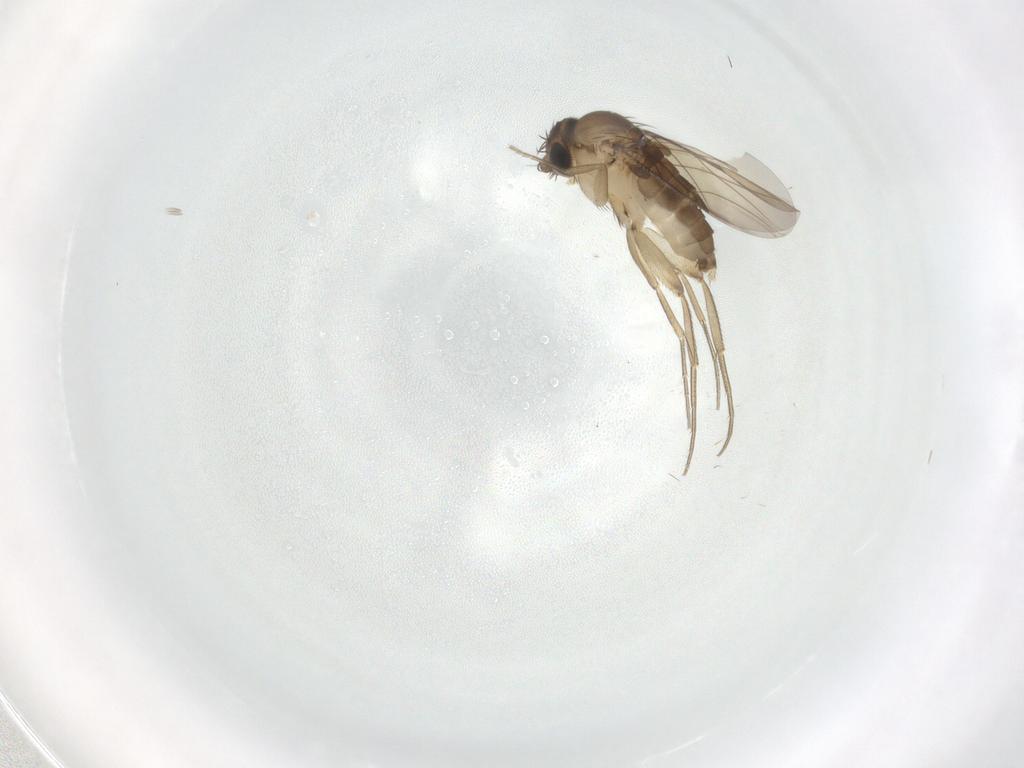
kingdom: Animalia
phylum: Arthropoda
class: Insecta
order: Diptera
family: Phoridae
